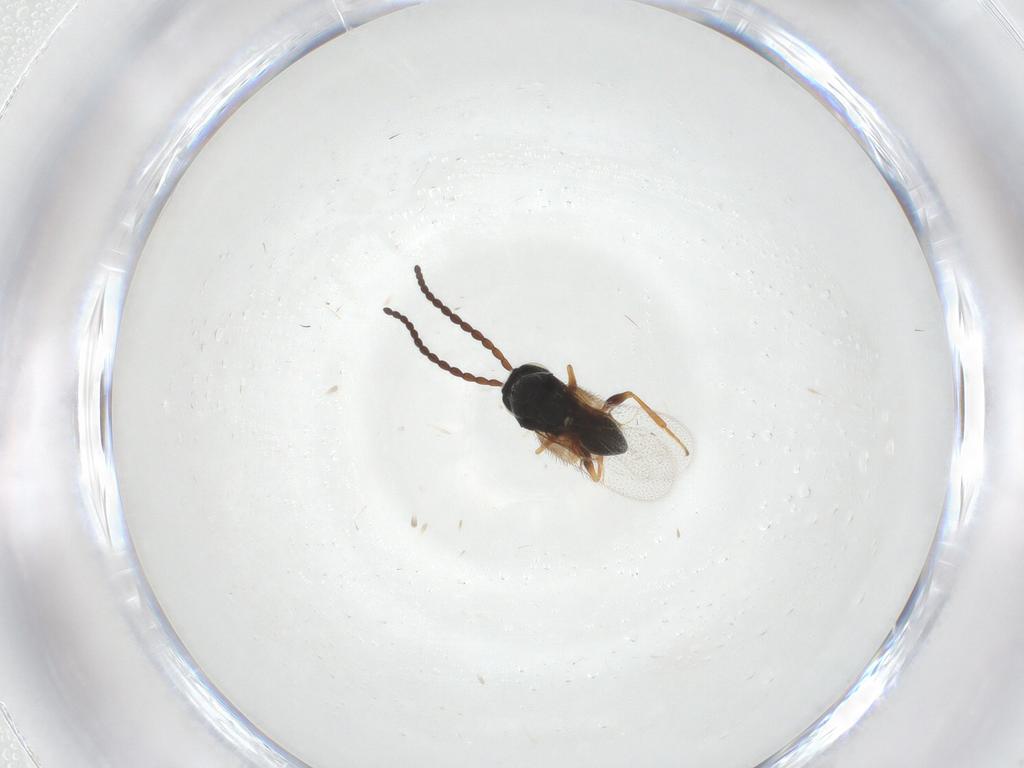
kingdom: Animalia
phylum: Arthropoda
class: Insecta
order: Hymenoptera
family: Figitidae
